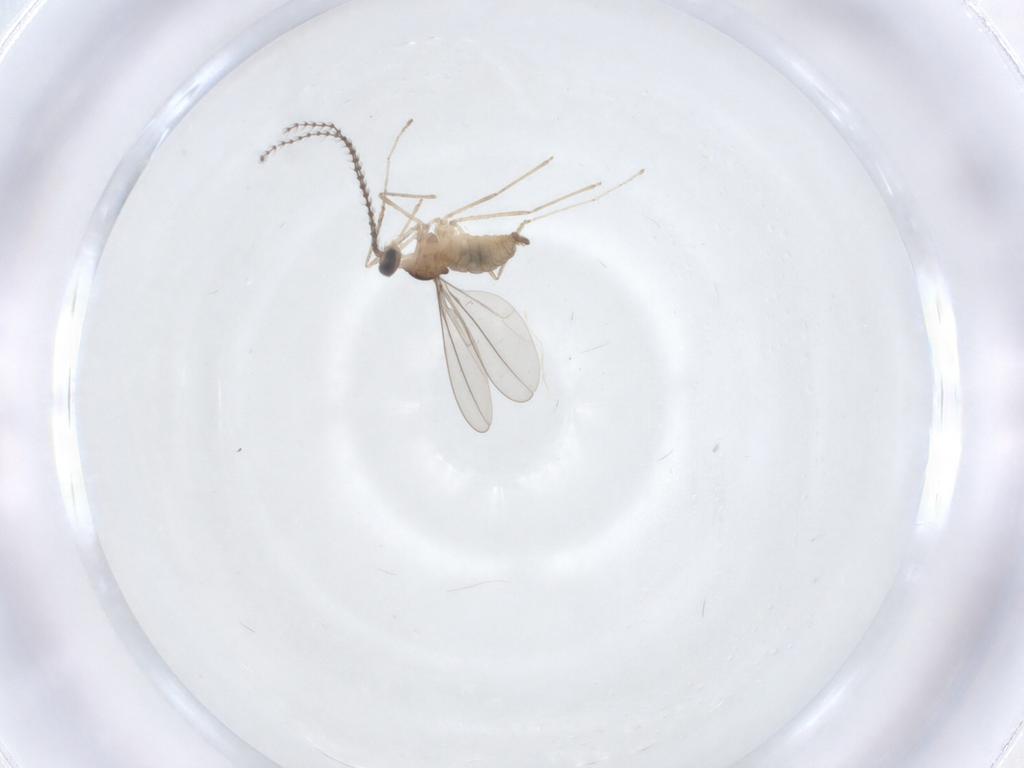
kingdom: Animalia
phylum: Arthropoda
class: Insecta
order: Diptera
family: Cecidomyiidae
